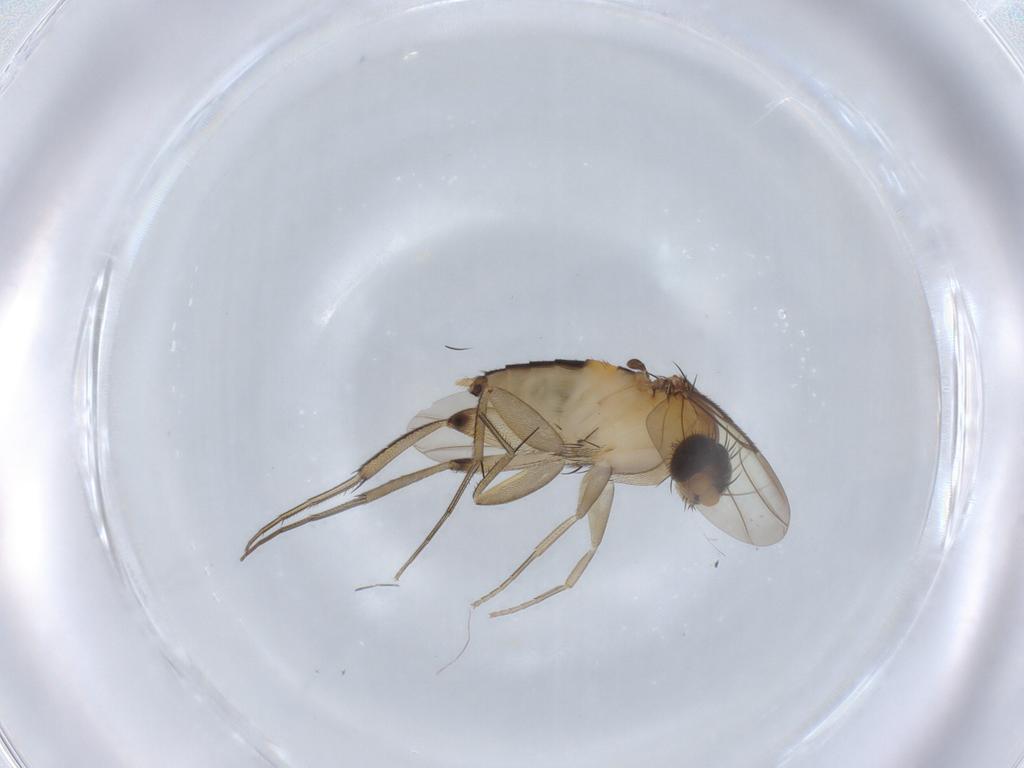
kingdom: Animalia
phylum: Arthropoda
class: Insecta
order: Diptera
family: Phoridae
